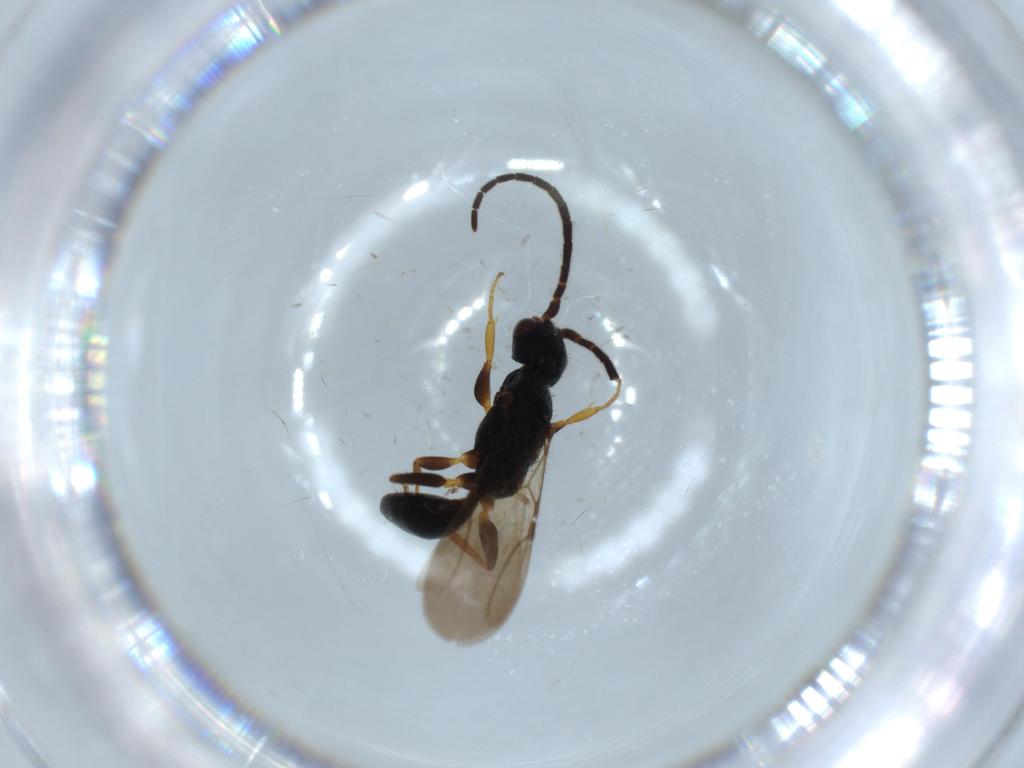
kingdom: Animalia
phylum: Arthropoda
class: Insecta
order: Hymenoptera
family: Bethylidae
